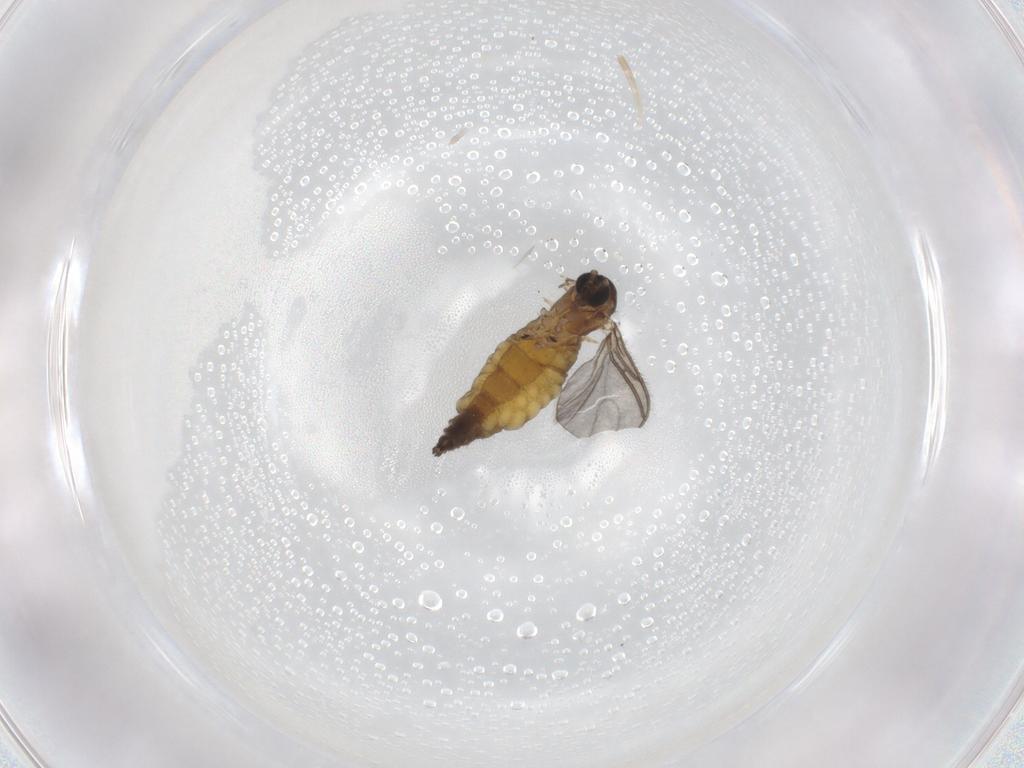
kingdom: Animalia
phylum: Arthropoda
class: Insecta
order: Diptera
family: Sciaridae
